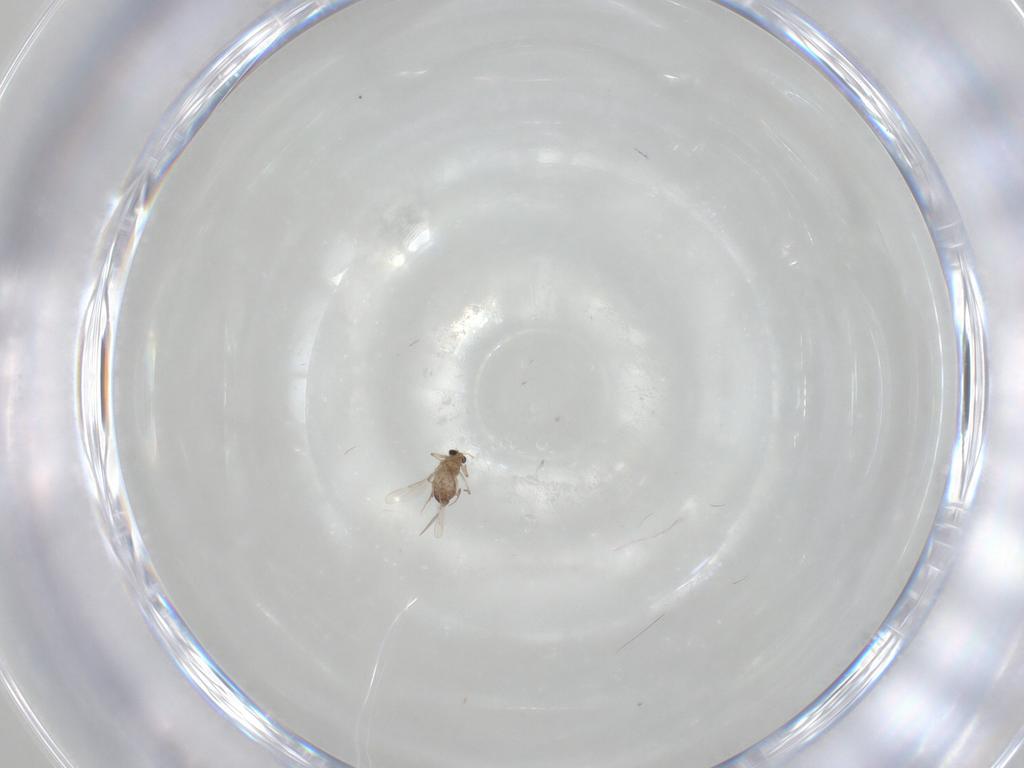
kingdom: Animalia
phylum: Arthropoda
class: Insecta
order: Diptera
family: Chironomidae
